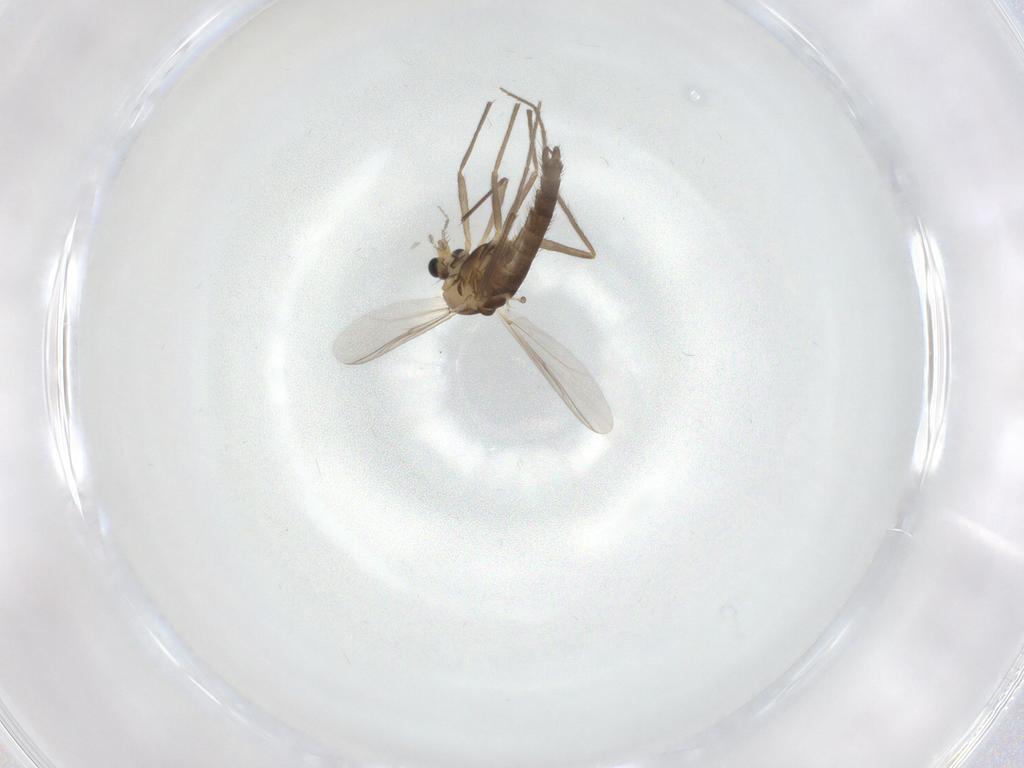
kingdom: Animalia
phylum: Arthropoda
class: Insecta
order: Diptera
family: Chironomidae
